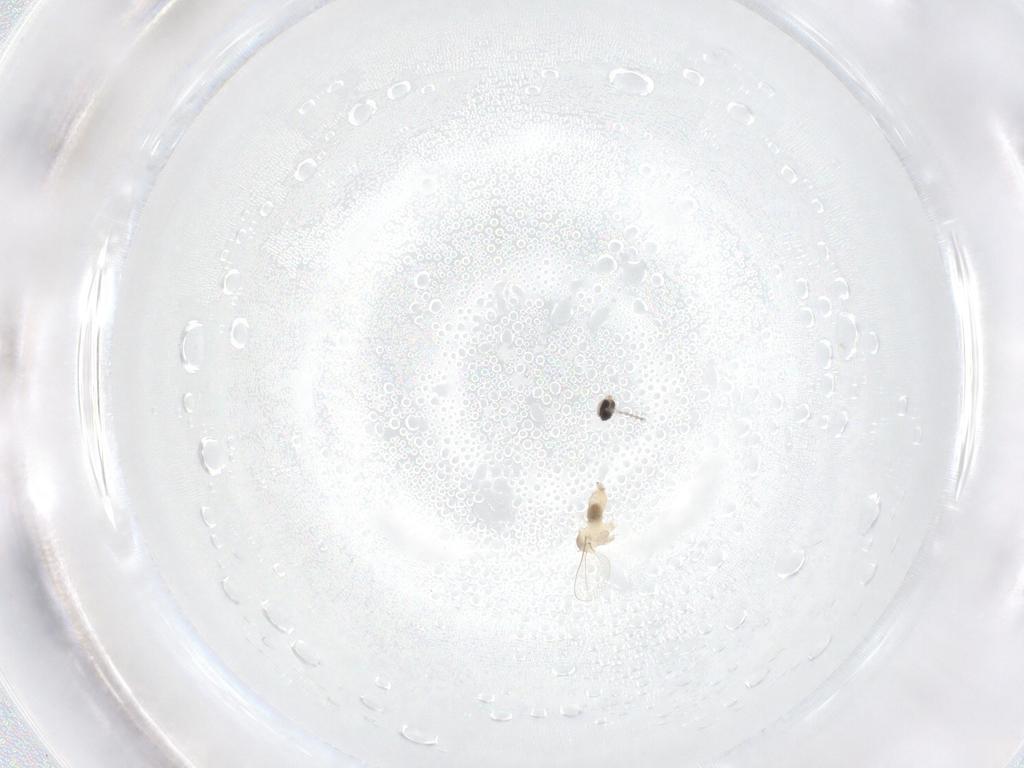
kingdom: Animalia
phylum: Arthropoda
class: Insecta
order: Diptera
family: Cecidomyiidae
